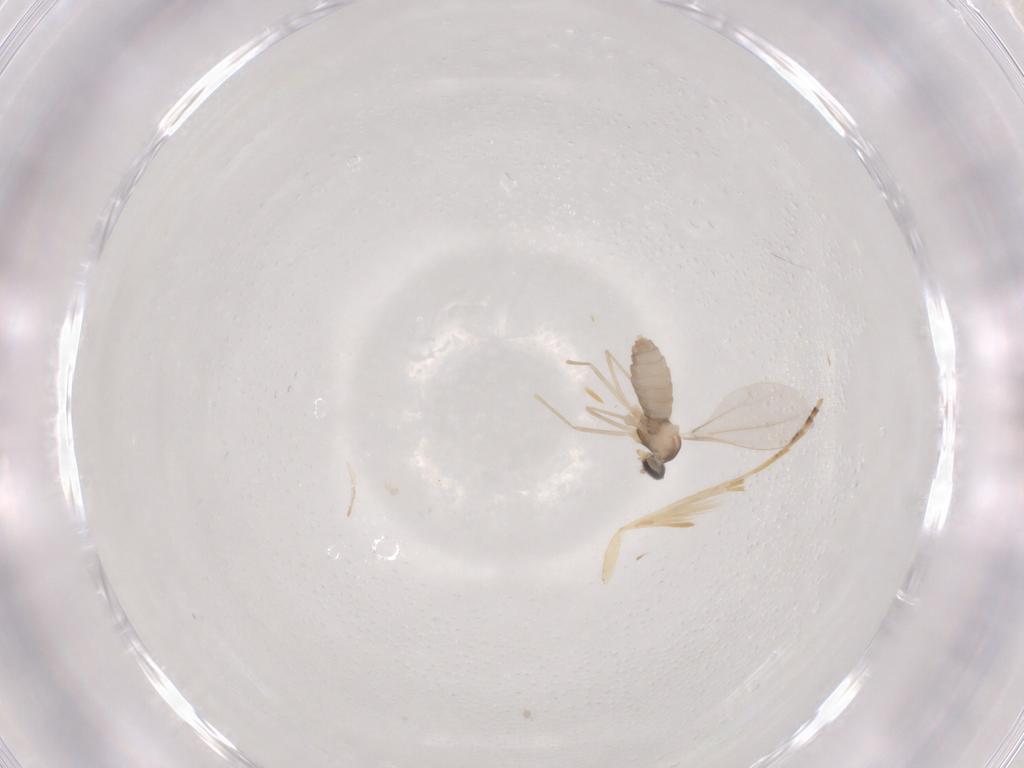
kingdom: Animalia
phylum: Arthropoda
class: Insecta
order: Diptera
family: Cecidomyiidae
